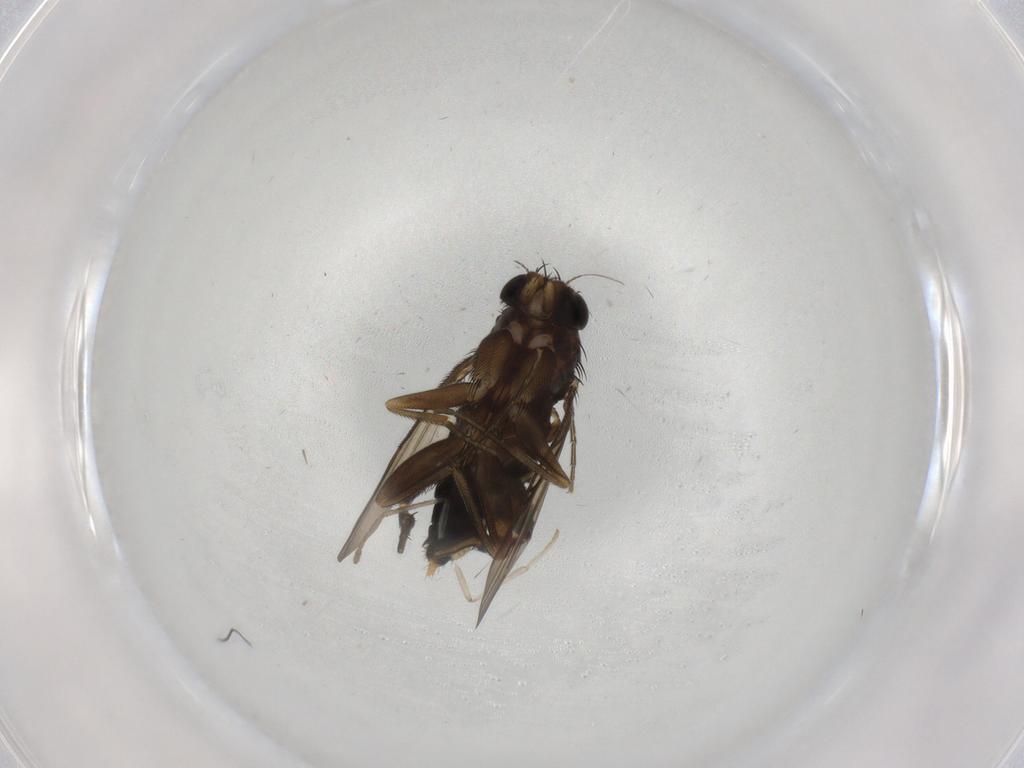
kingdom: Animalia
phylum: Arthropoda
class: Insecta
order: Diptera
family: Phoridae
